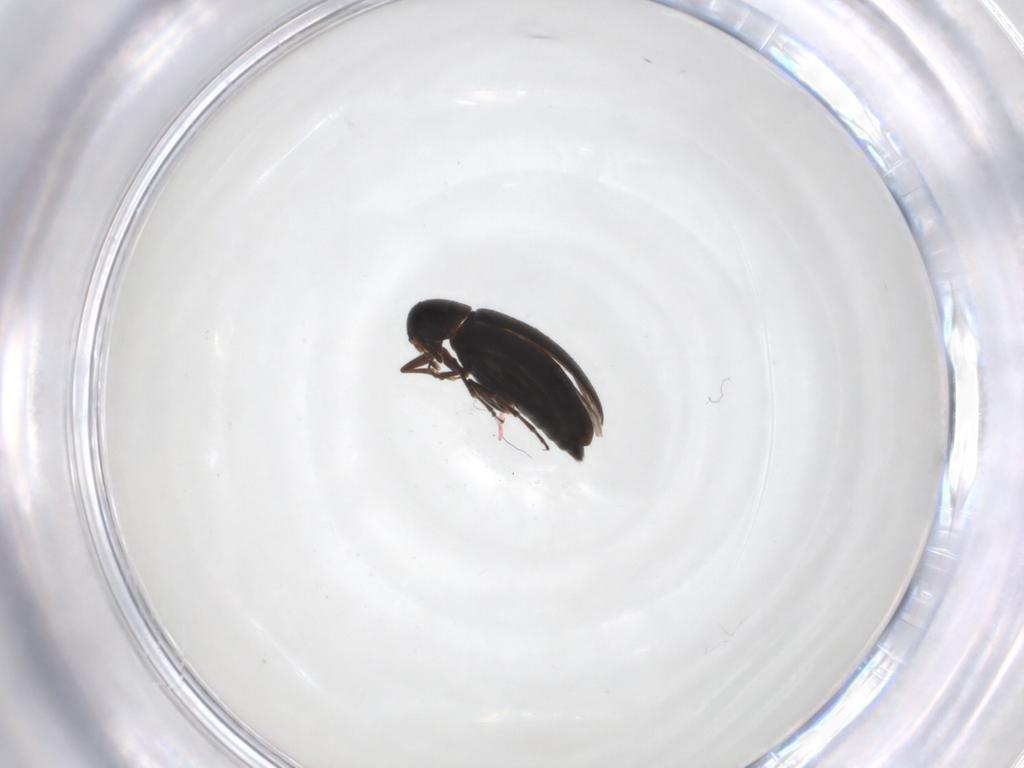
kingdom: Animalia
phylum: Arthropoda
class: Insecta
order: Coleoptera
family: Scraptiidae
